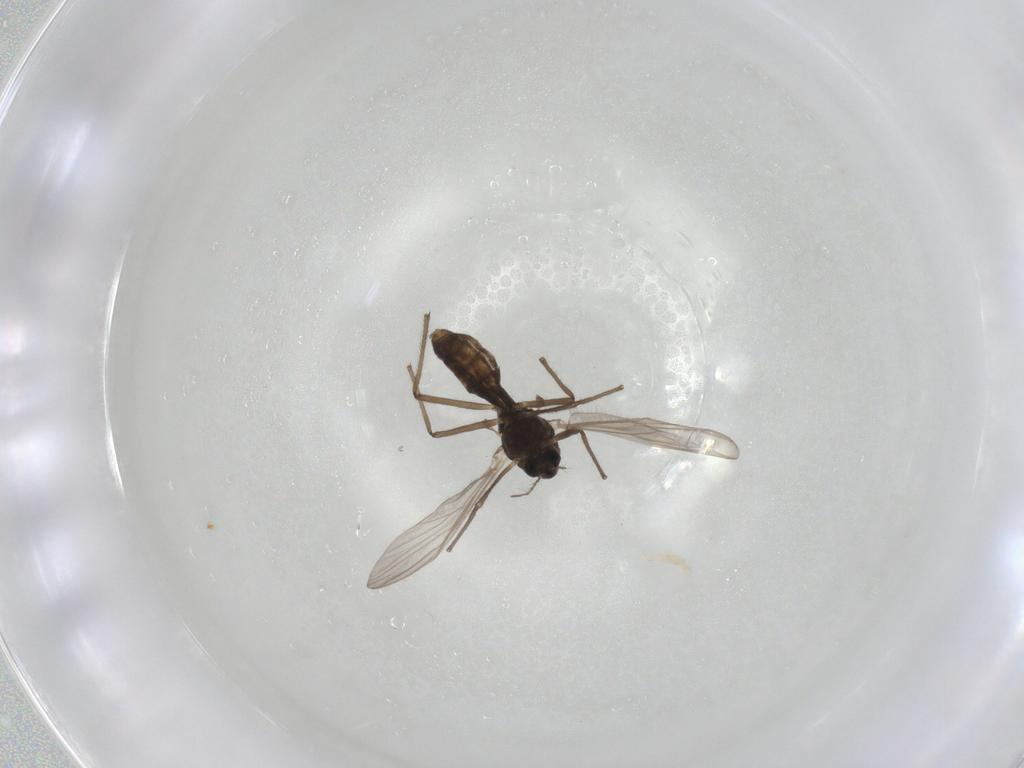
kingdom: Animalia
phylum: Arthropoda
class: Insecta
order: Diptera
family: Chironomidae
